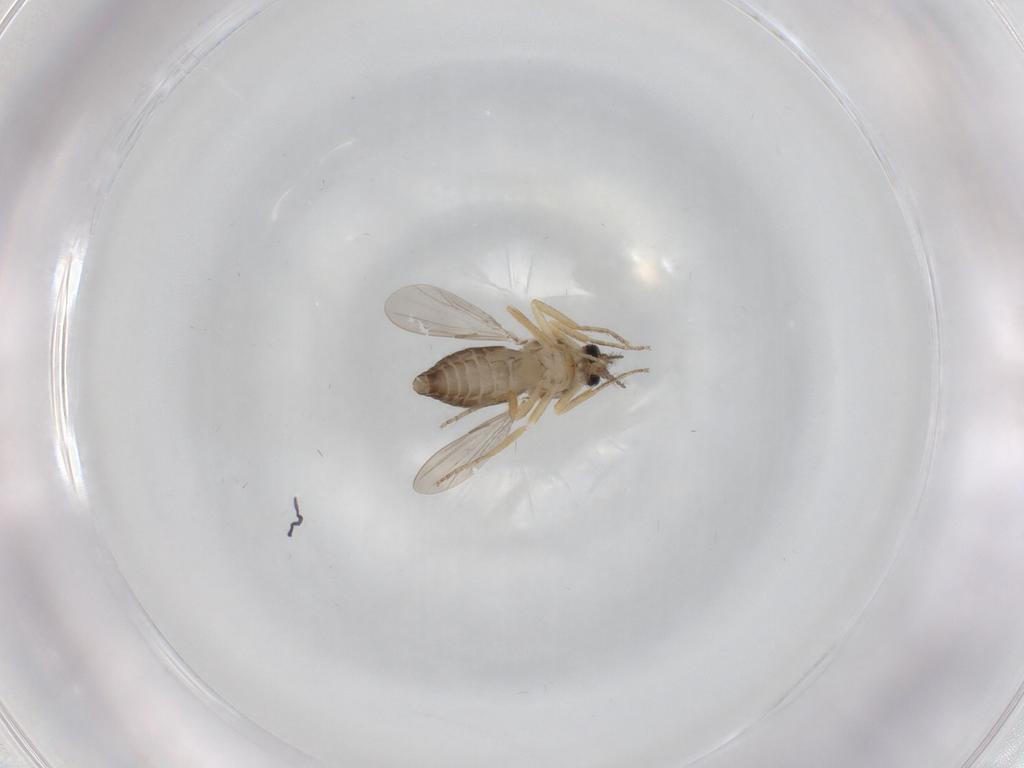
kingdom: Animalia
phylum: Arthropoda
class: Insecta
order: Diptera
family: Ceratopogonidae
